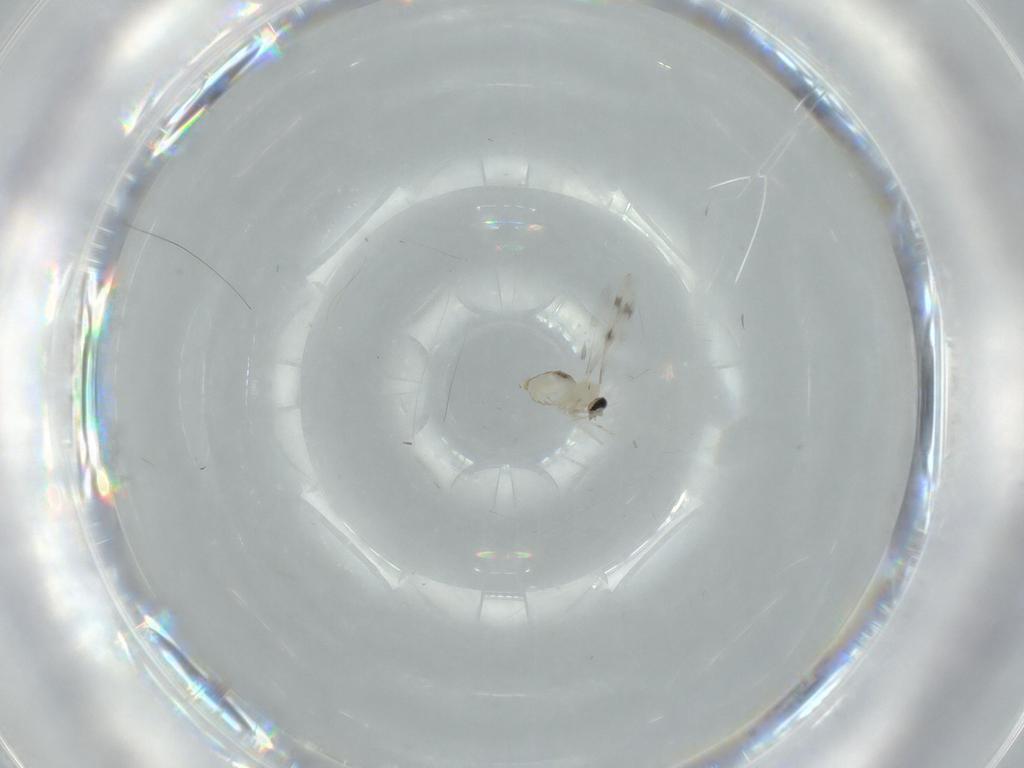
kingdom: Animalia
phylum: Arthropoda
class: Insecta
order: Diptera
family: Cecidomyiidae
